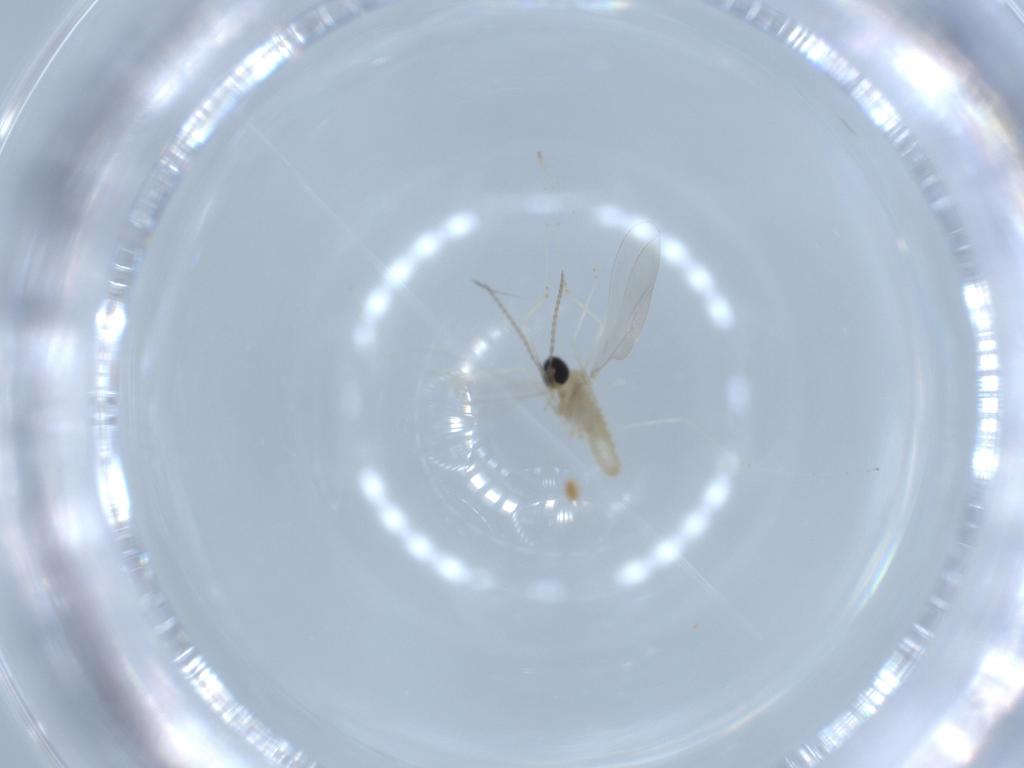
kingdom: Animalia
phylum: Arthropoda
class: Insecta
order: Diptera
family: Cecidomyiidae
